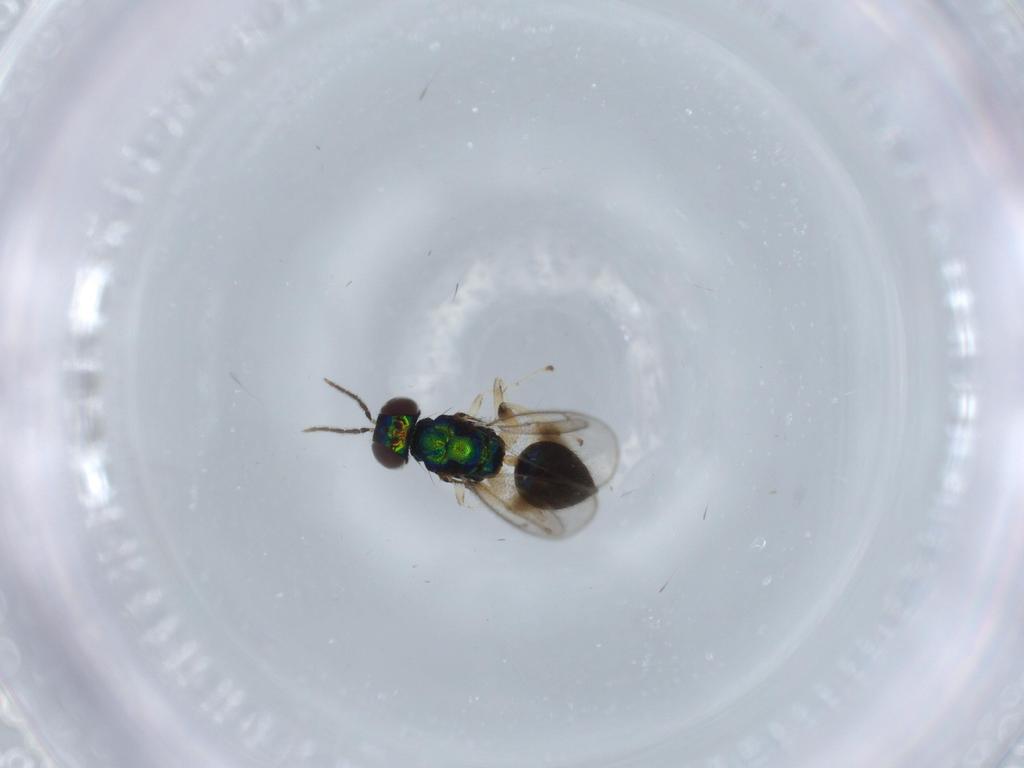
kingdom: Animalia
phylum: Arthropoda
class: Insecta
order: Hymenoptera
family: Eulophidae
